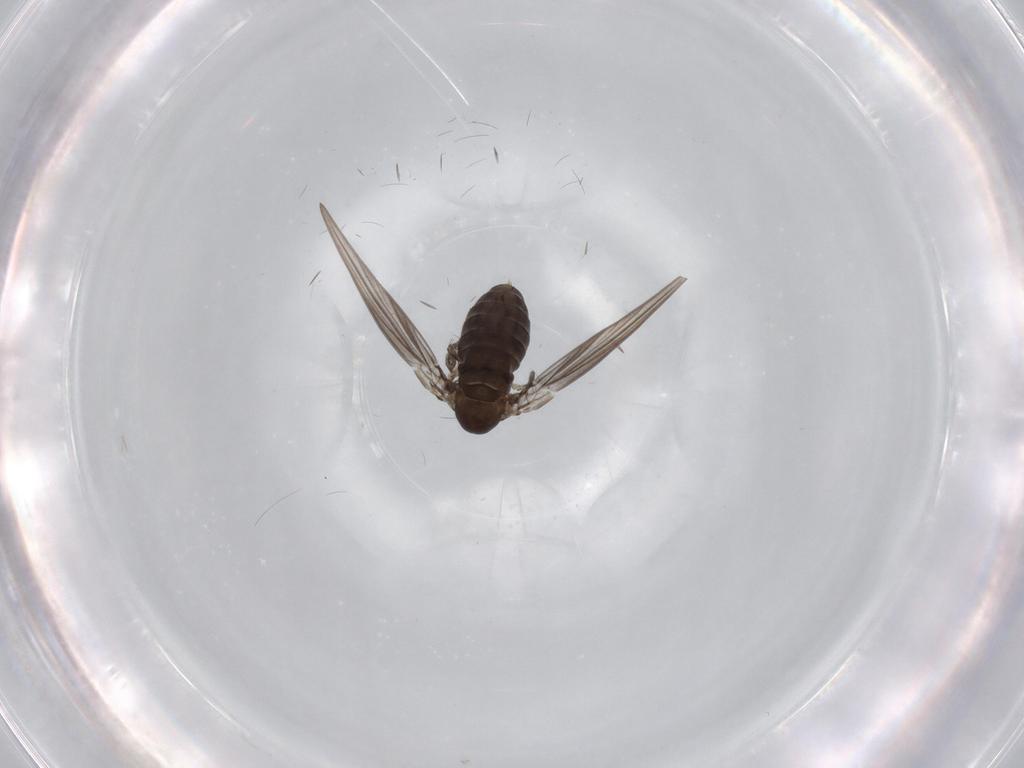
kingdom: Animalia
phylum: Arthropoda
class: Insecta
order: Diptera
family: Psychodidae
